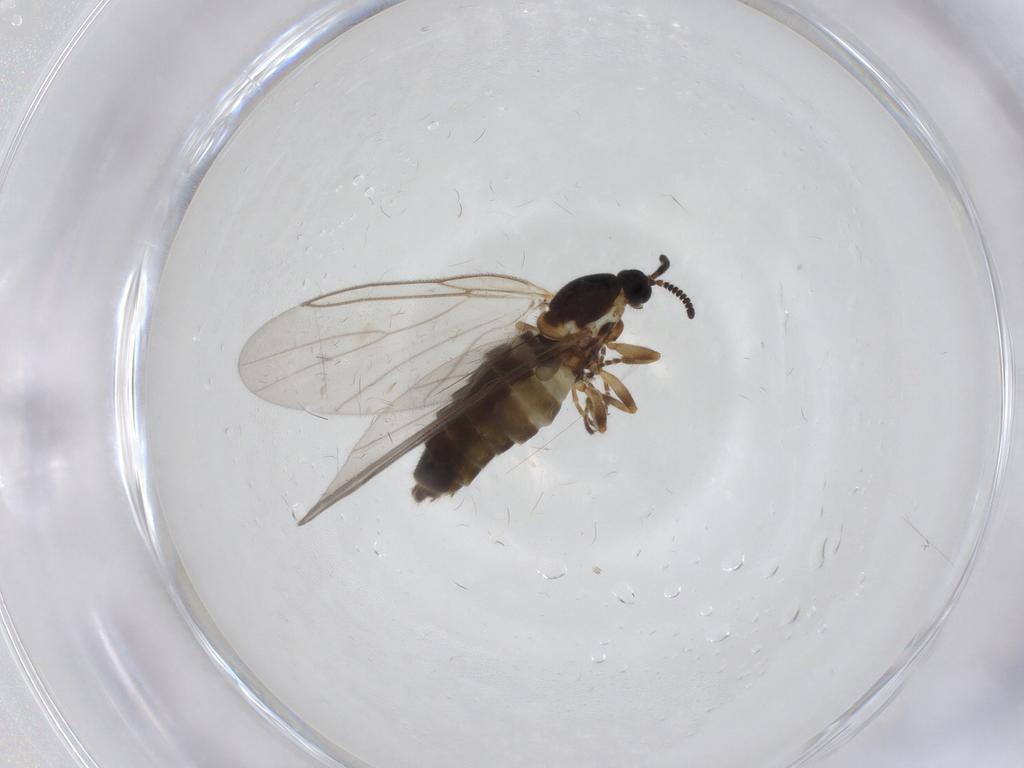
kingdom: Animalia
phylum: Arthropoda
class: Insecta
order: Diptera
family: Scatopsidae
